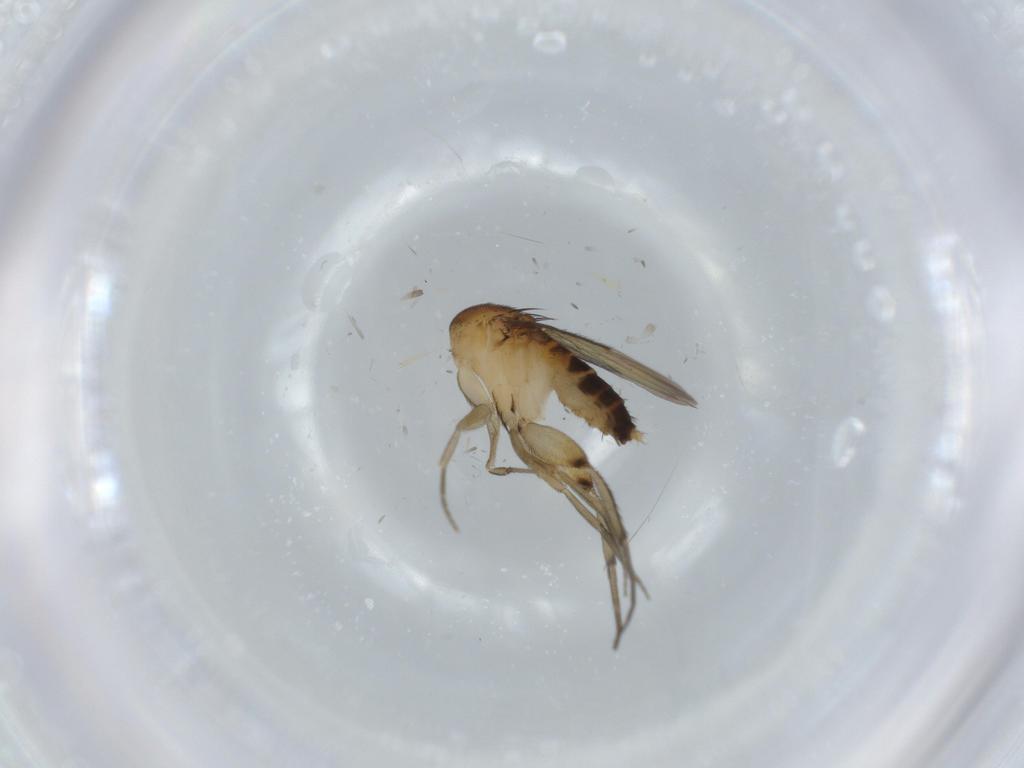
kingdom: Animalia
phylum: Arthropoda
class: Insecta
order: Diptera
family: Phoridae
